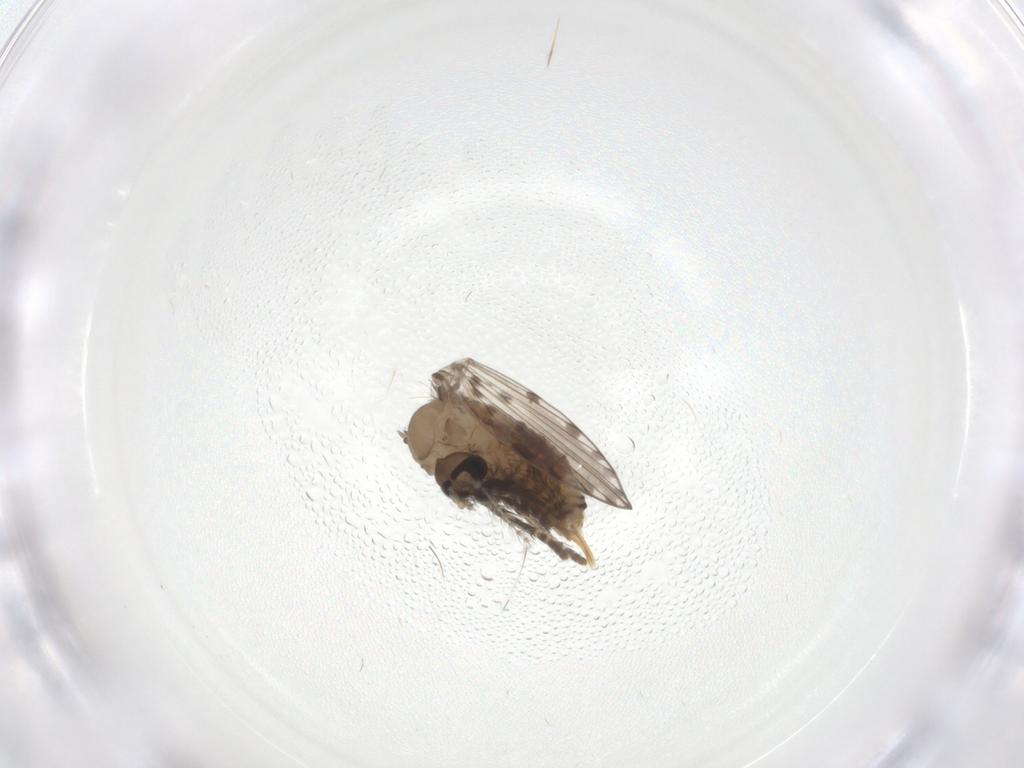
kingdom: Animalia
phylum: Arthropoda
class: Insecta
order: Diptera
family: Psychodidae
